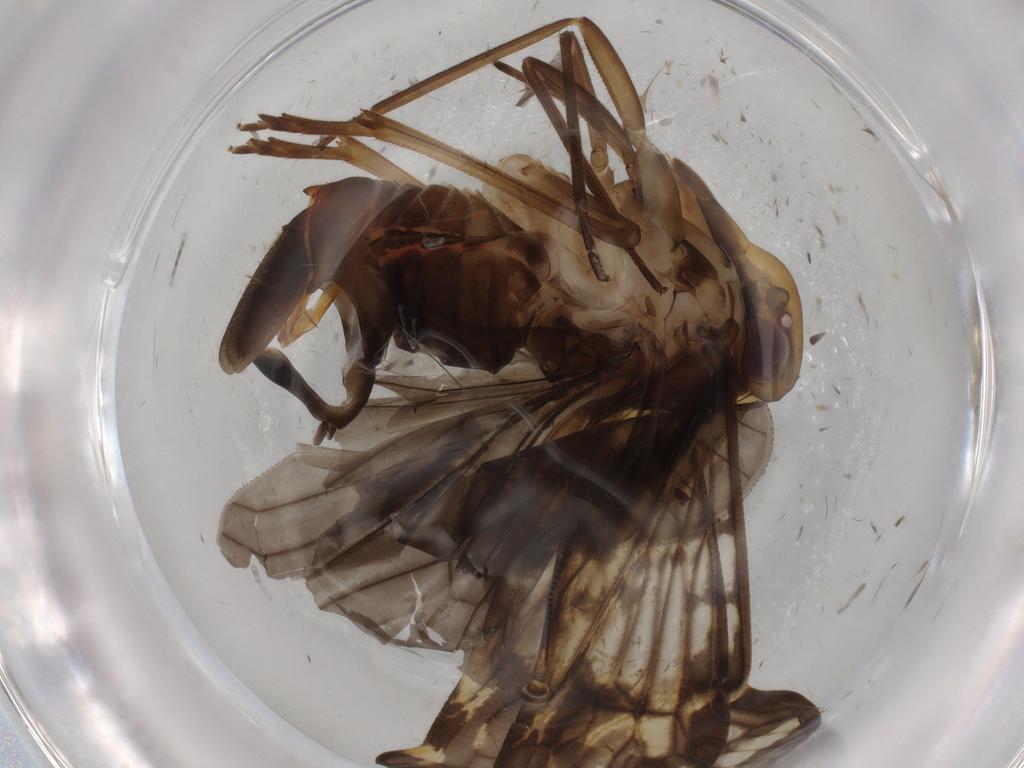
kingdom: Animalia
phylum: Arthropoda
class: Insecta
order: Hemiptera
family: Cixiidae
